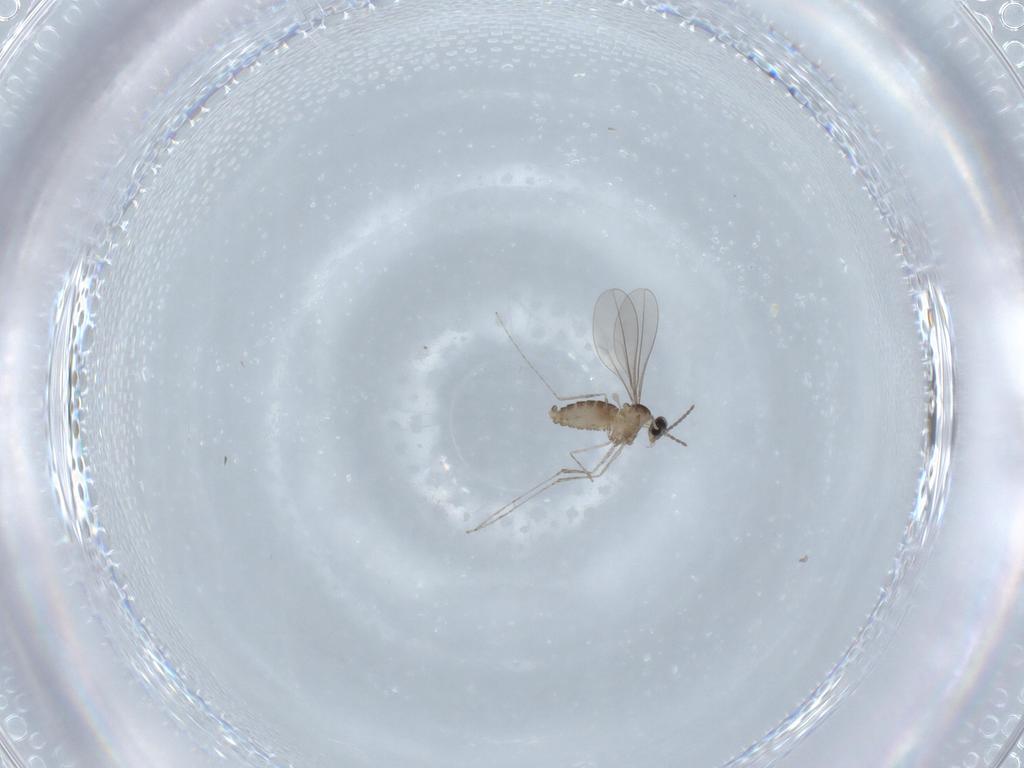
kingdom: Animalia
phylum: Arthropoda
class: Insecta
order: Diptera
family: Cecidomyiidae
